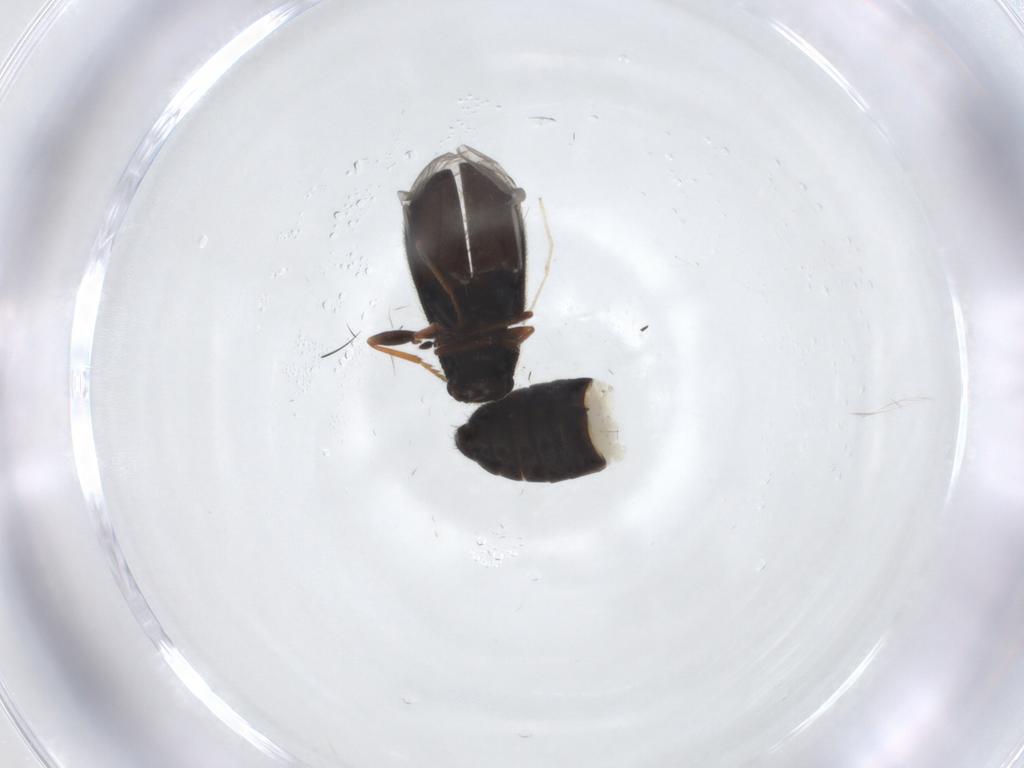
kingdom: Animalia
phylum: Arthropoda
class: Insecta
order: Coleoptera
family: Melyridae
